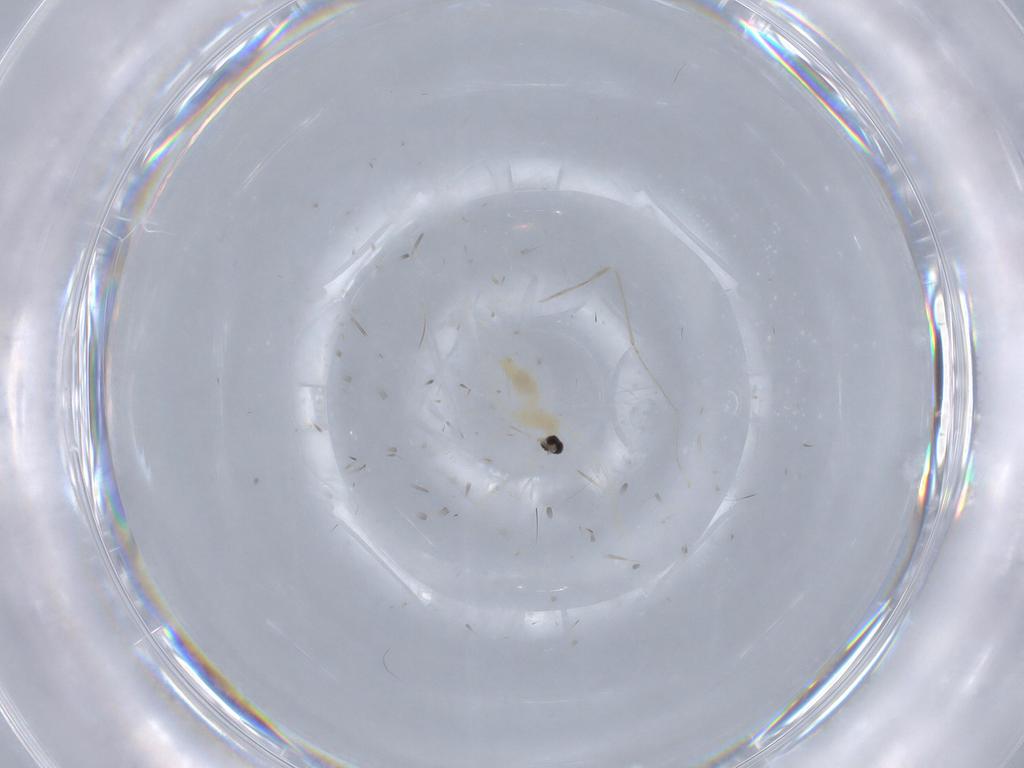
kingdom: Animalia
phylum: Arthropoda
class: Insecta
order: Diptera
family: Cecidomyiidae
